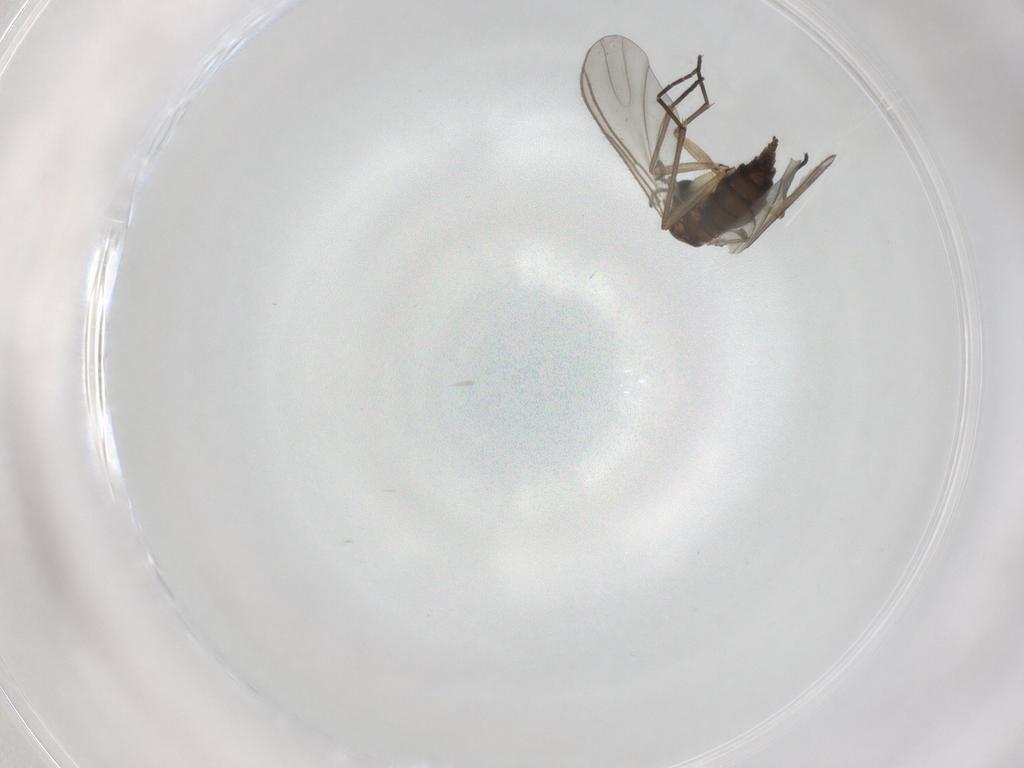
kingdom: Animalia
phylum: Arthropoda
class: Insecta
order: Diptera
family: Sciaridae
